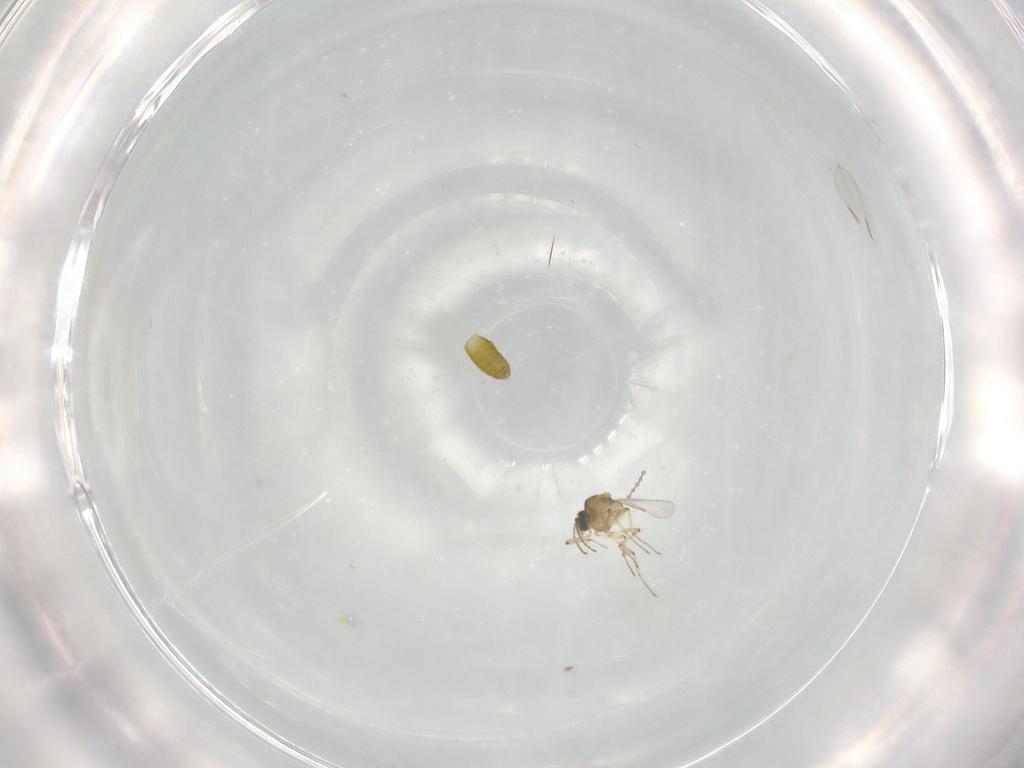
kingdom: Animalia
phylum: Arthropoda
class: Insecta
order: Diptera
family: Ceratopogonidae
